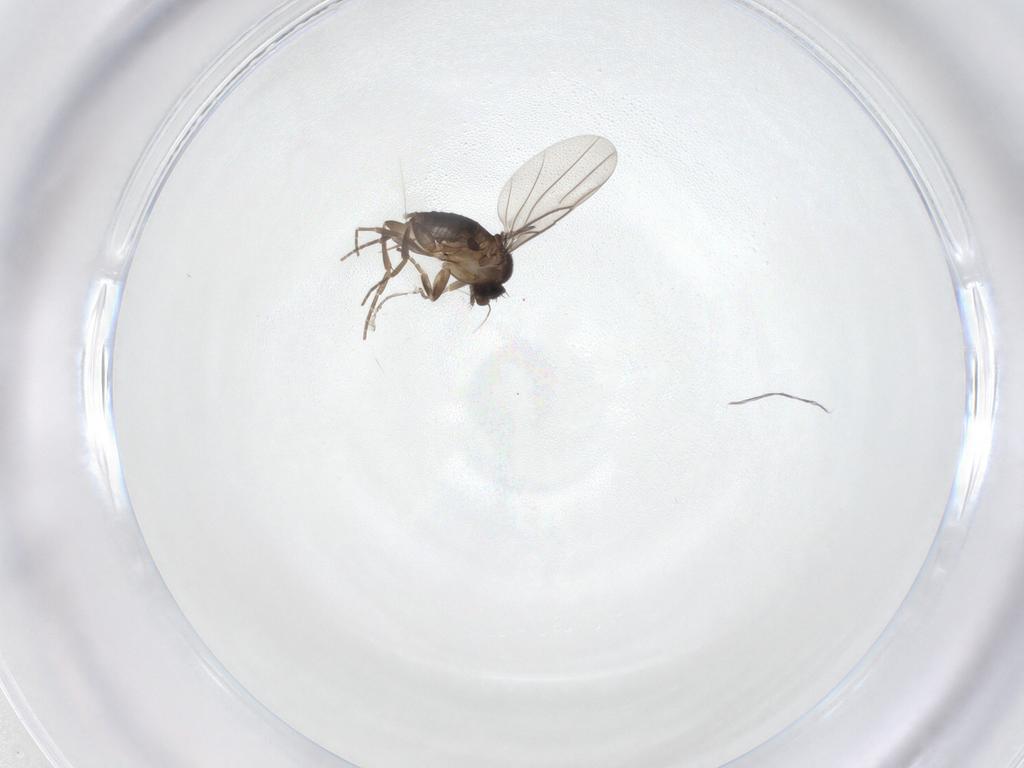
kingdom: Animalia
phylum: Arthropoda
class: Insecta
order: Diptera
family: Phoridae
